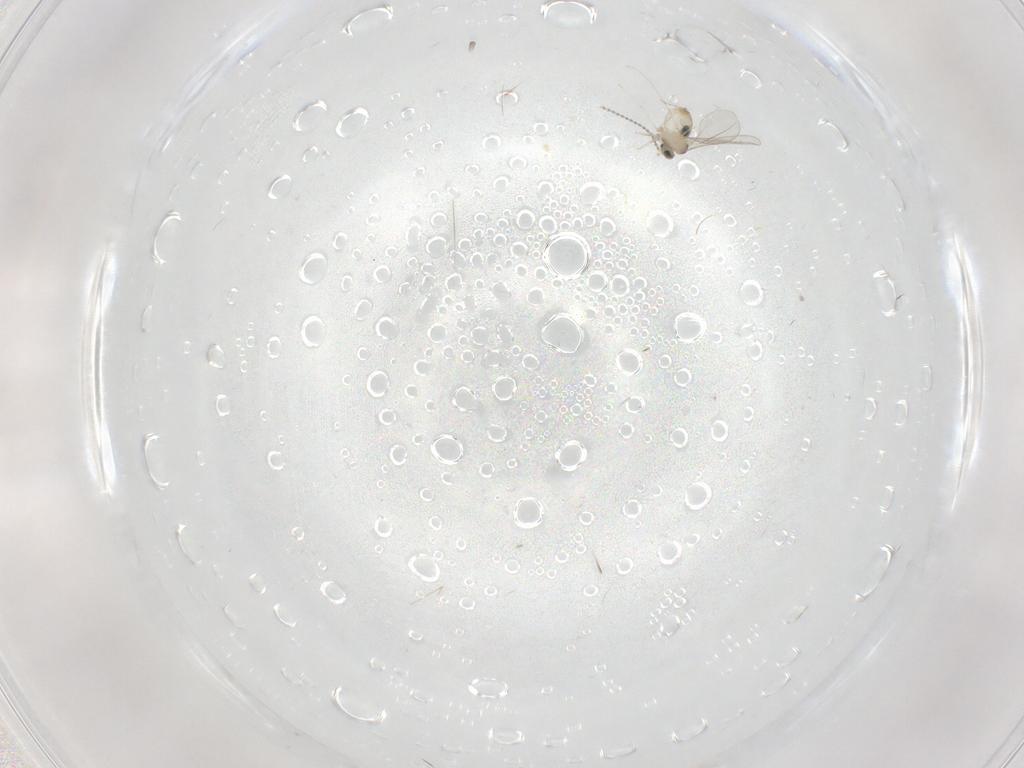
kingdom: Animalia
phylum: Arthropoda
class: Insecta
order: Diptera
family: Cecidomyiidae
